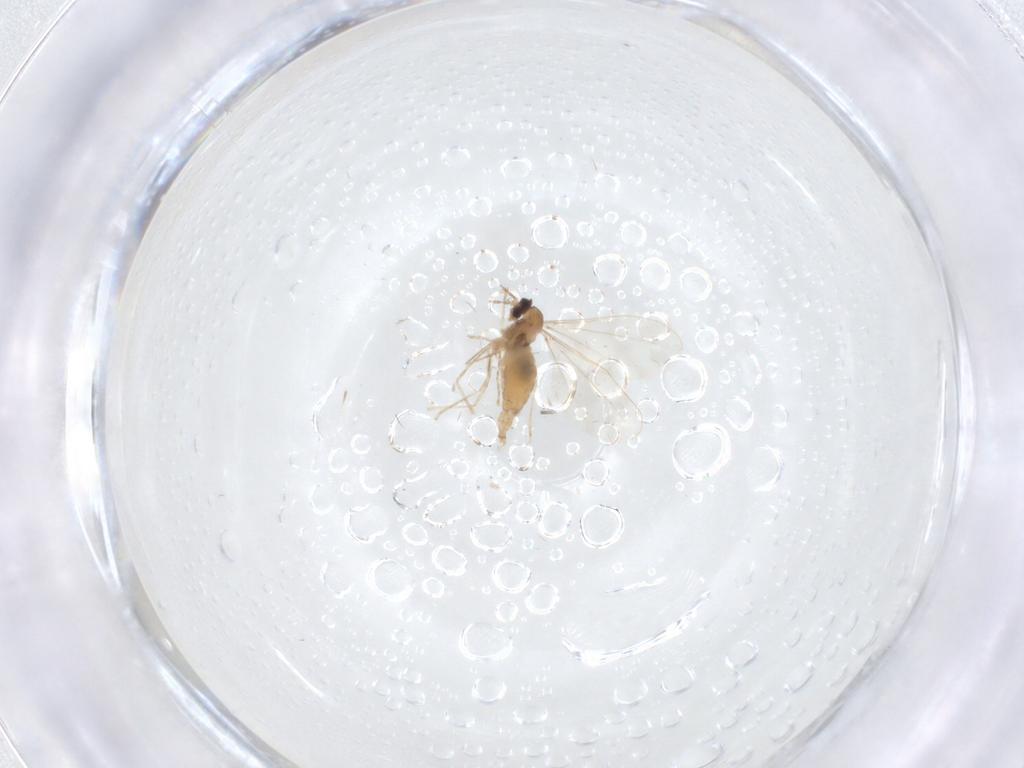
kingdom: Animalia
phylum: Arthropoda
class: Insecta
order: Diptera
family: Cecidomyiidae
